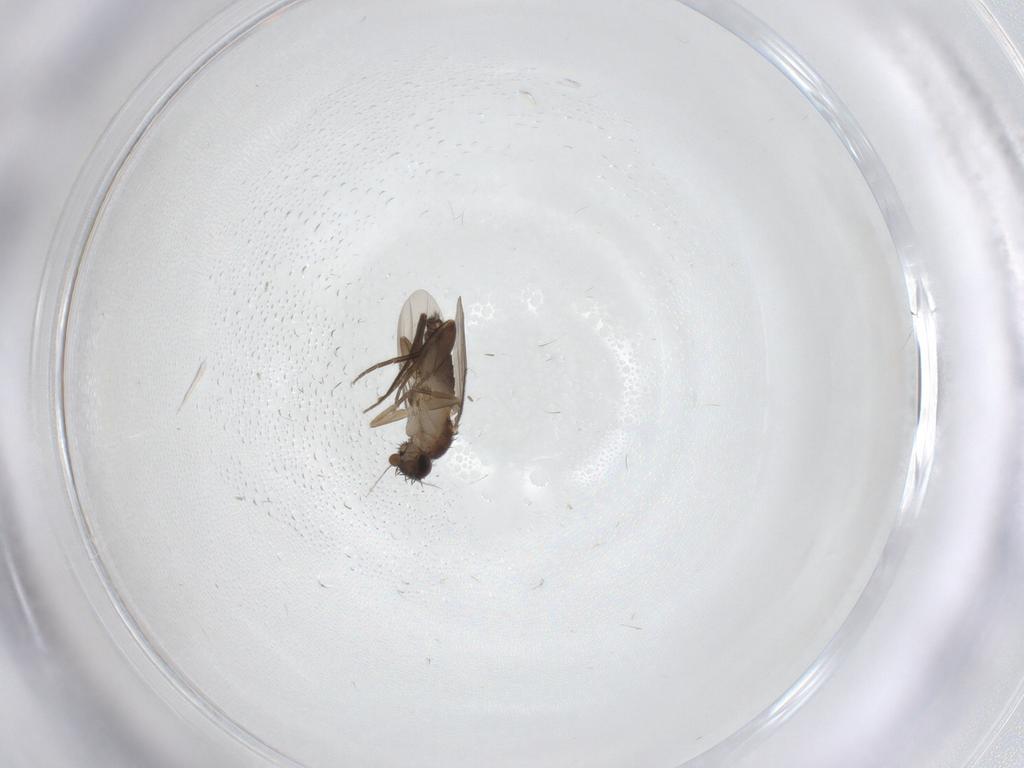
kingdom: Animalia
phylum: Arthropoda
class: Insecta
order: Diptera
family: Phoridae
